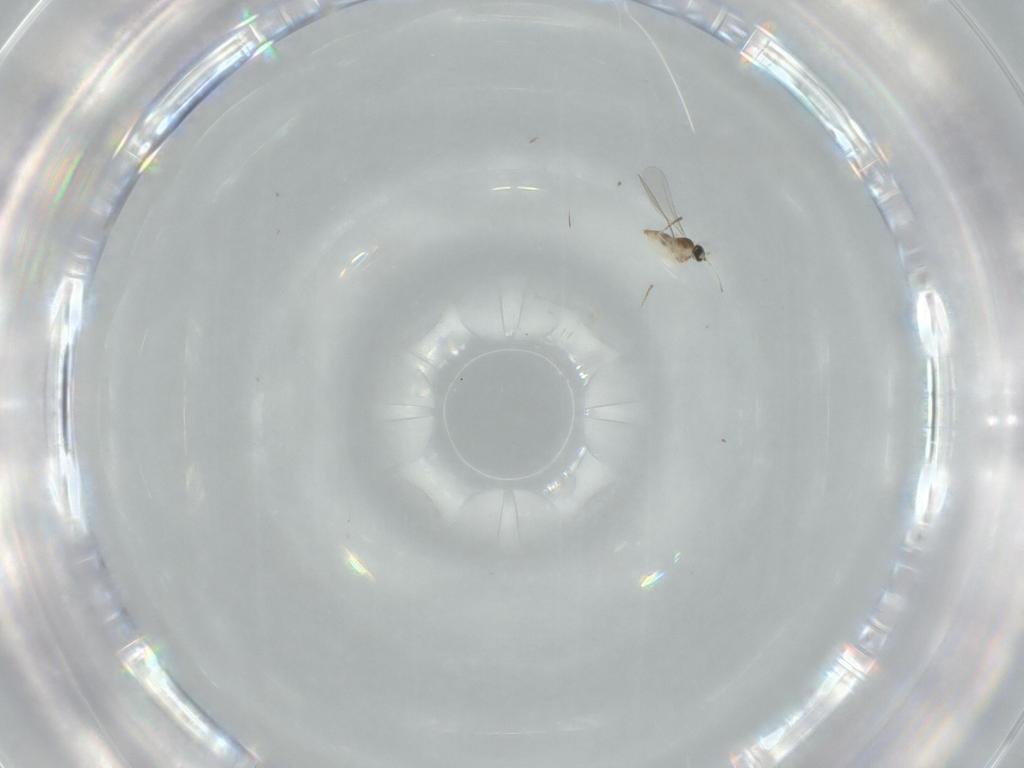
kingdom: Animalia
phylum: Arthropoda
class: Insecta
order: Diptera
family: Cecidomyiidae
